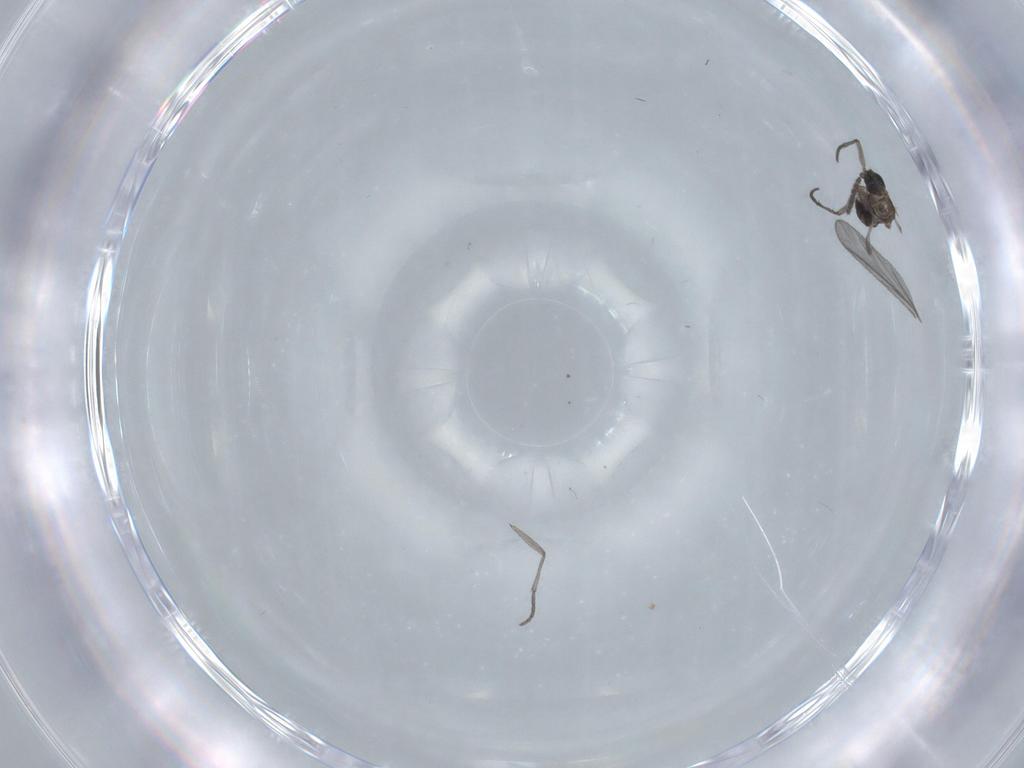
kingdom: Animalia
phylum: Arthropoda
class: Insecta
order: Diptera
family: Sciaridae
